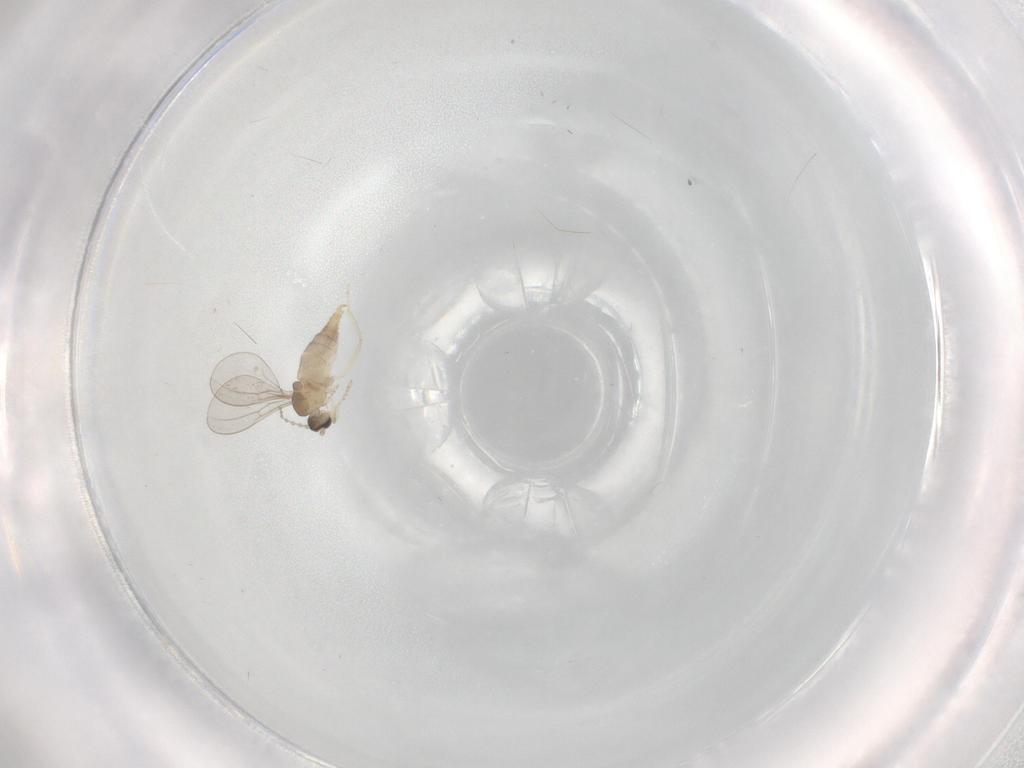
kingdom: Animalia
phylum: Arthropoda
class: Insecta
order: Diptera
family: Cecidomyiidae
